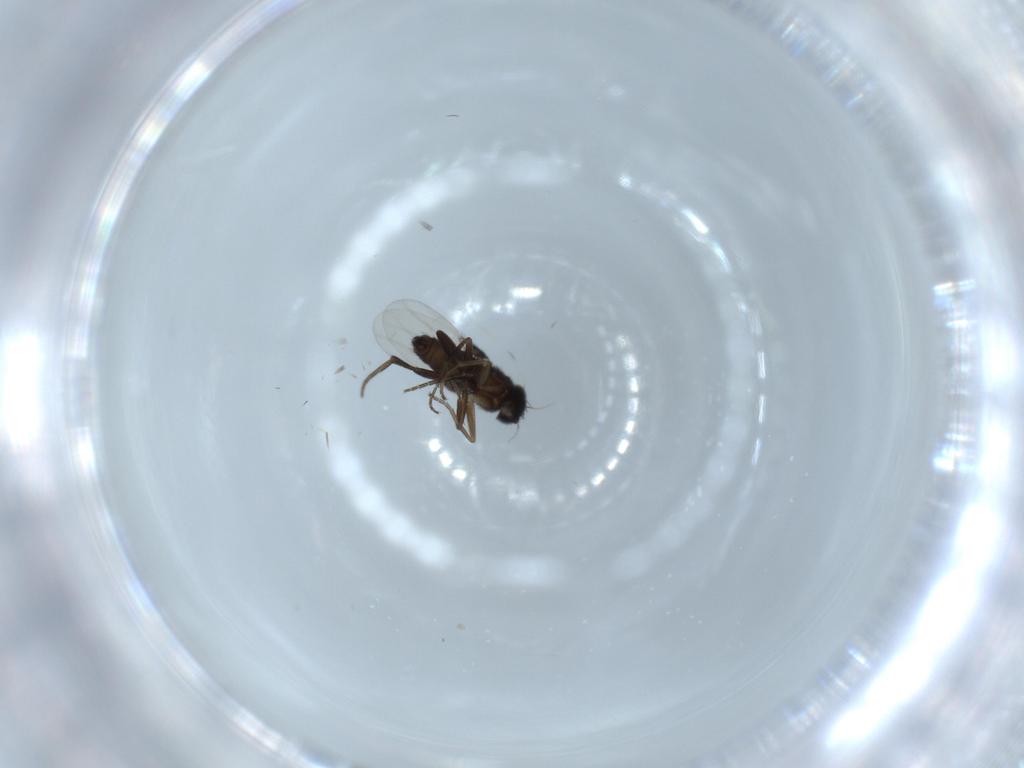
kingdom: Animalia
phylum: Arthropoda
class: Insecta
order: Diptera
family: Phoridae
